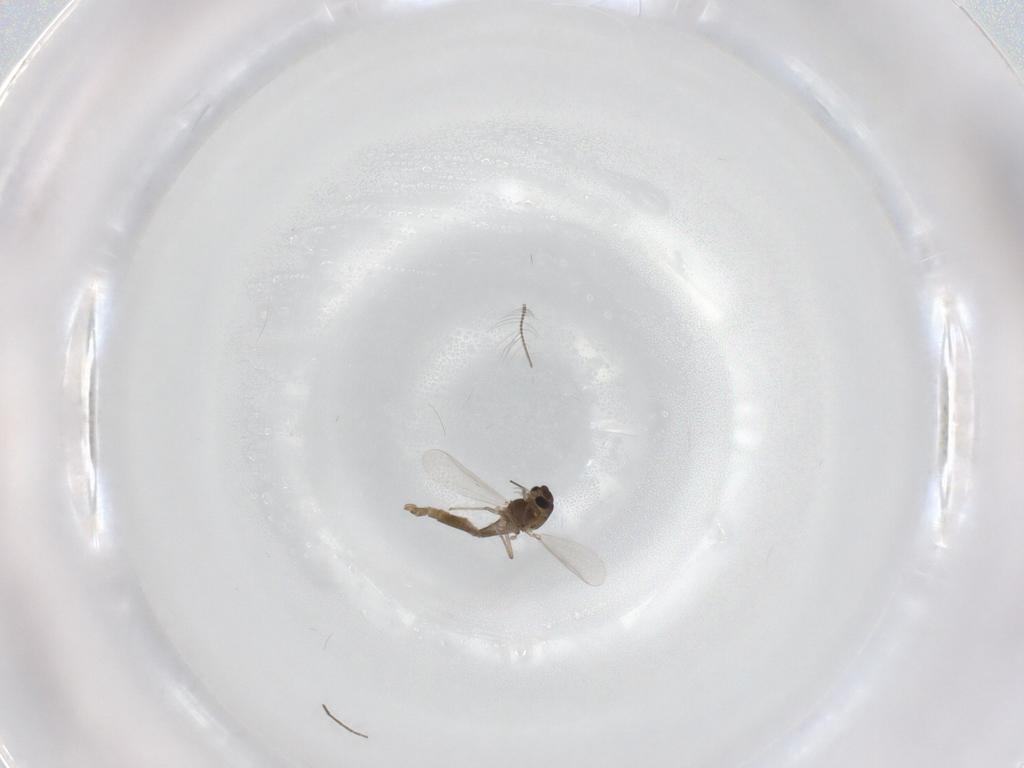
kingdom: Animalia
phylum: Arthropoda
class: Insecta
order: Diptera
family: Chironomidae
